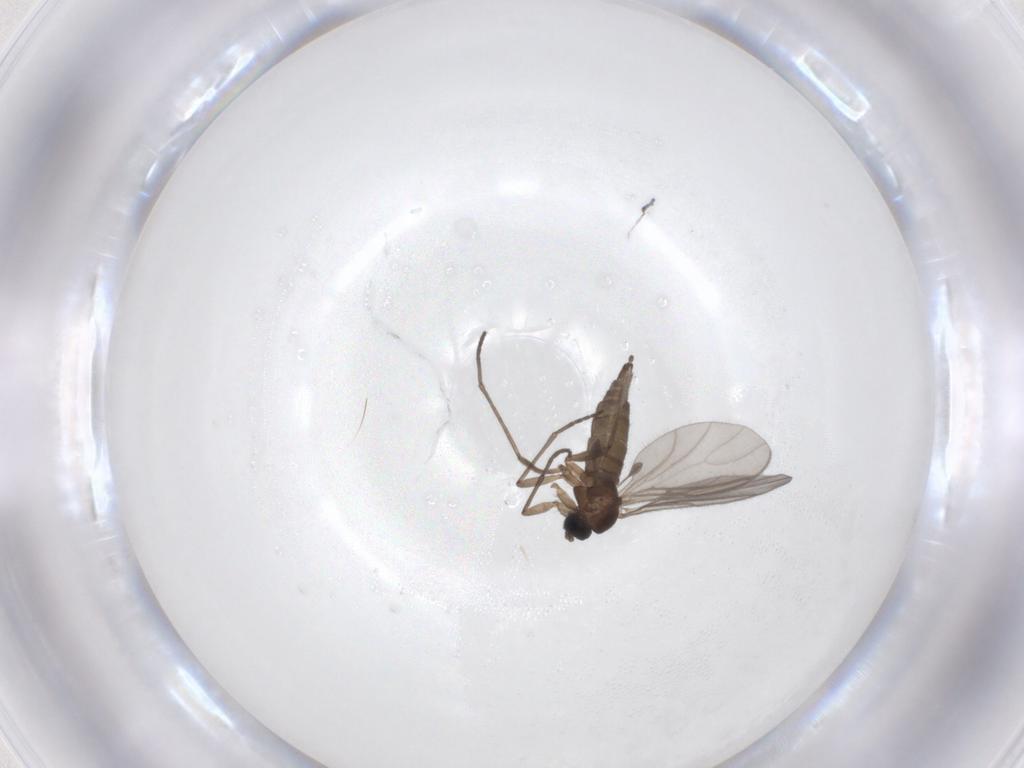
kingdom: Animalia
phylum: Arthropoda
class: Insecta
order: Diptera
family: Sciaridae
